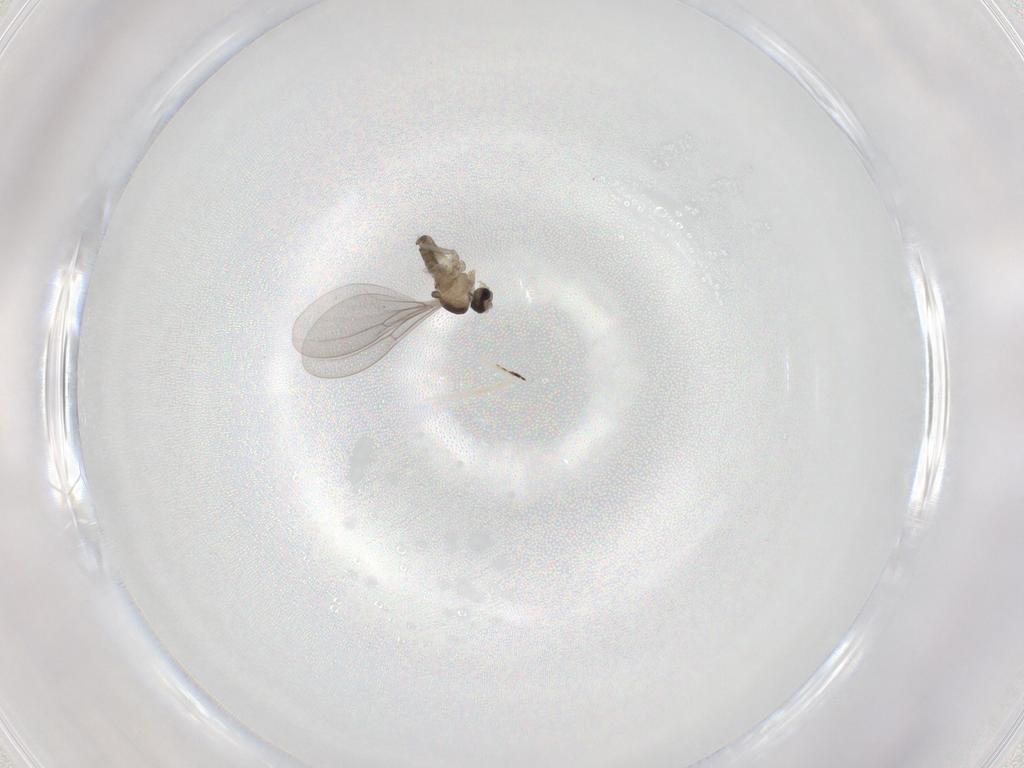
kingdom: Animalia
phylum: Arthropoda
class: Insecta
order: Diptera
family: Cecidomyiidae
